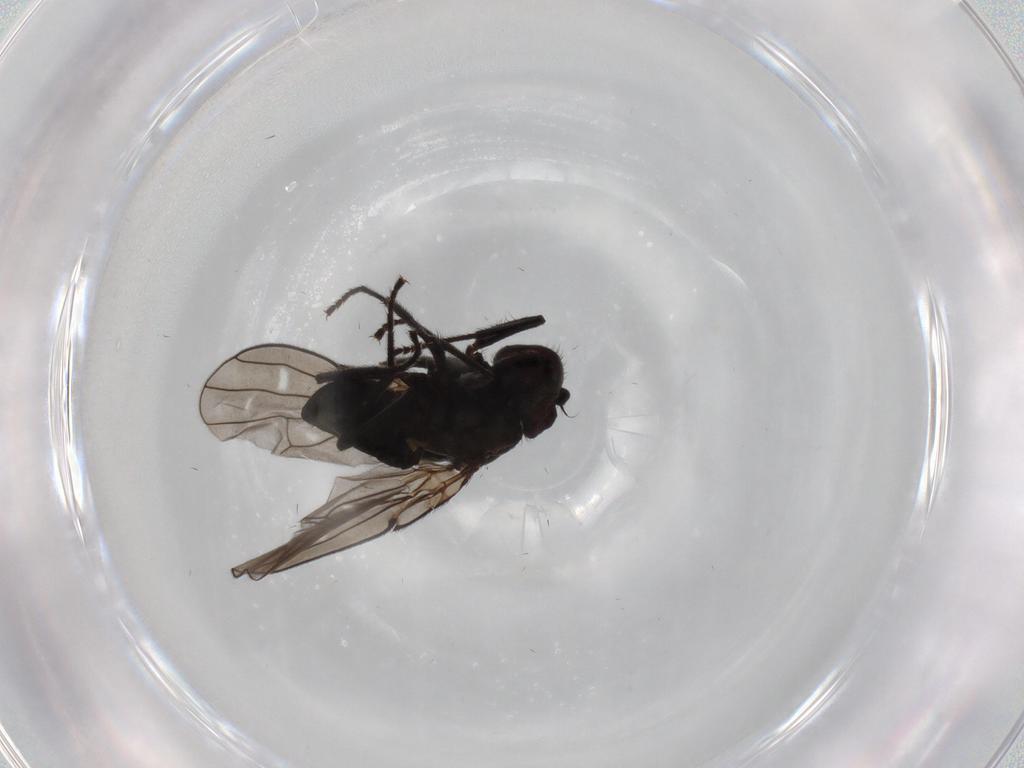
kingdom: Animalia
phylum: Arthropoda
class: Insecta
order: Diptera
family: Ephydridae
